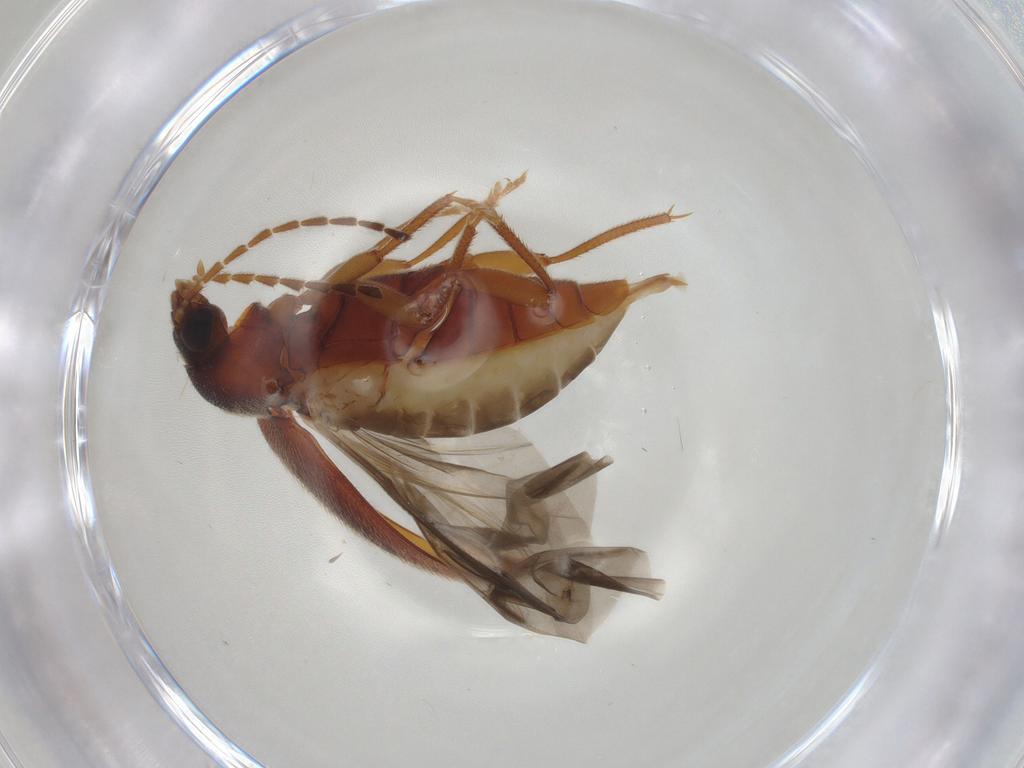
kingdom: Animalia
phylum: Arthropoda
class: Insecta
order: Coleoptera
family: Ptilodactylidae
